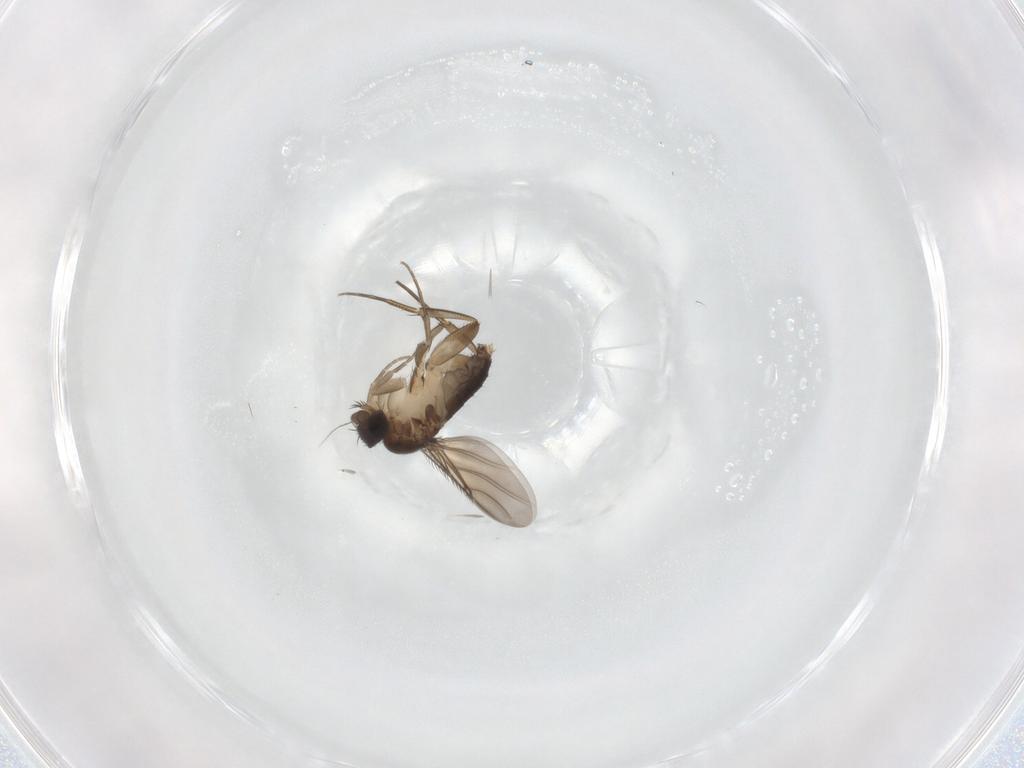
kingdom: Animalia
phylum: Arthropoda
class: Insecta
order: Diptera
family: Phoridae
